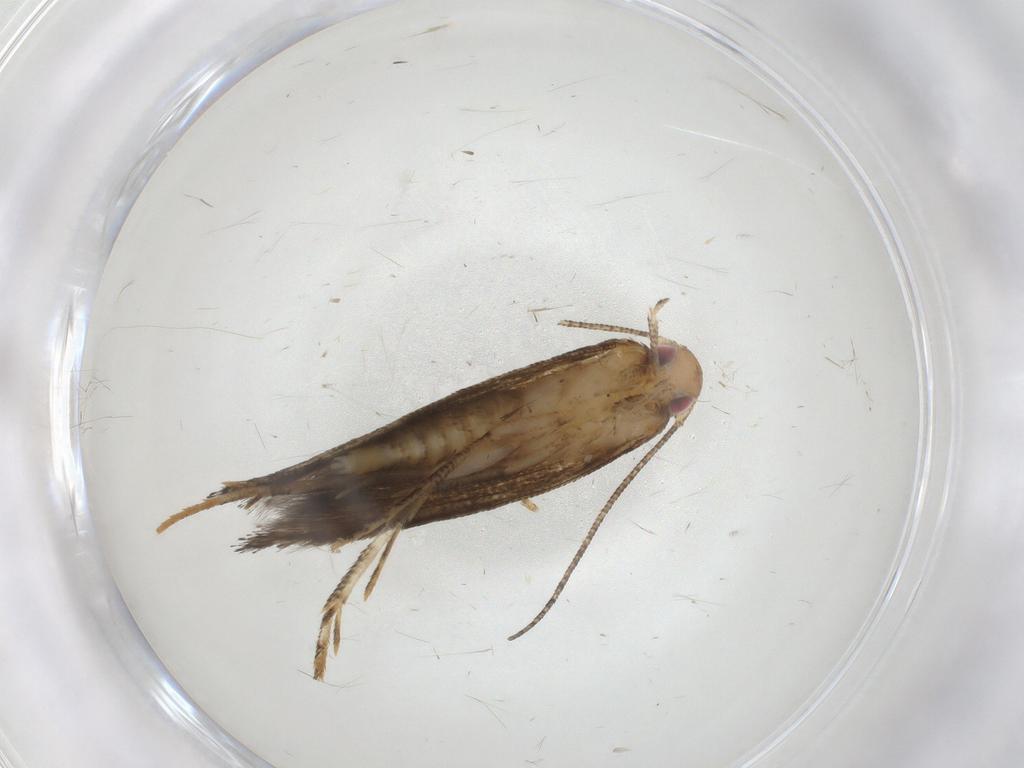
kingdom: Animalia
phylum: Arthropoda
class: Insecta
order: Lepidoptera
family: Erebidae
